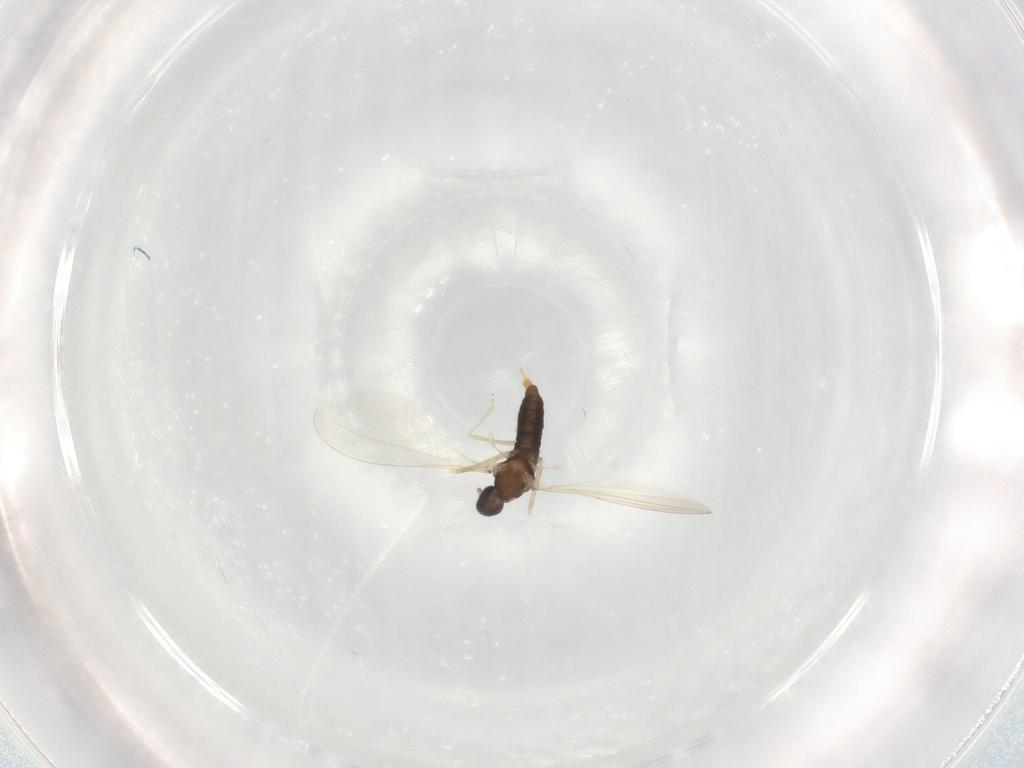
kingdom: Animalia
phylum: Arthropoda
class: Insecta
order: Diptera
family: Cecidomyiidae
